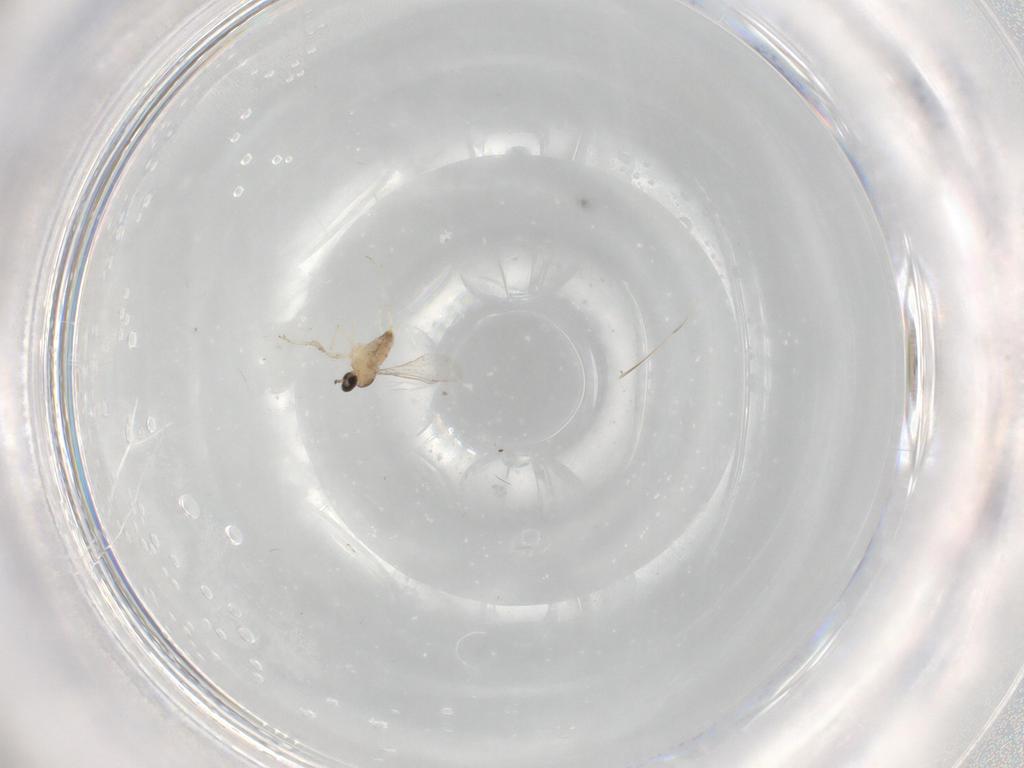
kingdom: Animalia
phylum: Arthropoda
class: Insecta
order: Diptera
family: Cecidomyiidae
